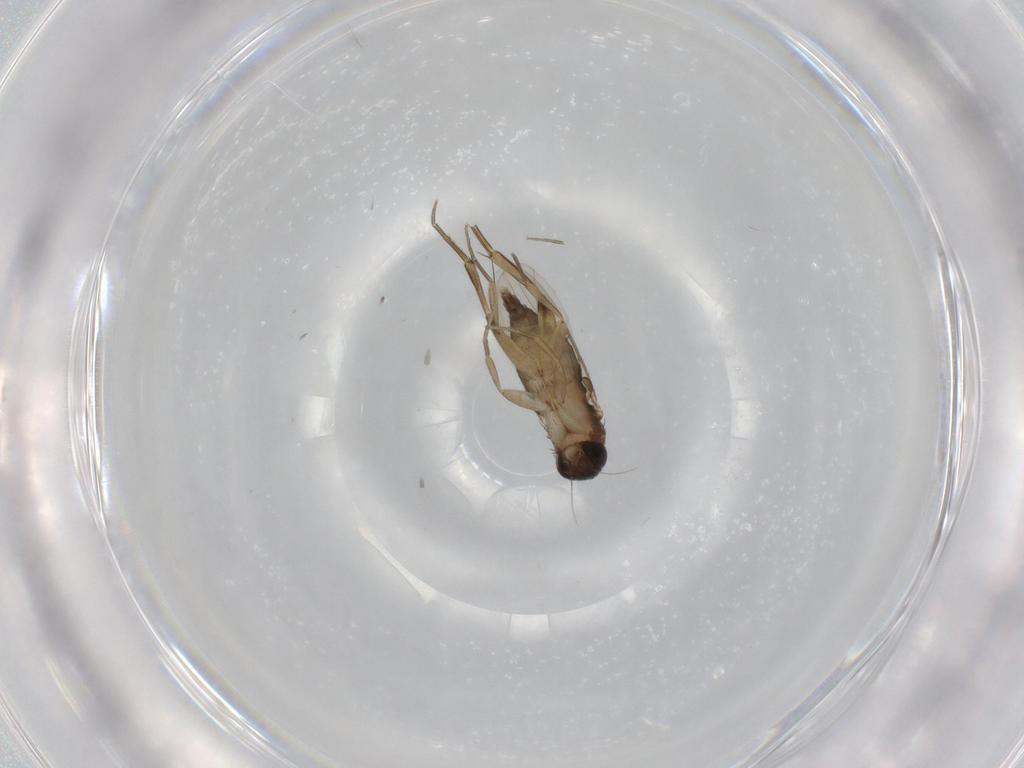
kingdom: Animalia
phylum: Arthropoda
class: Insecta
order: Diptera
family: Phoridae
